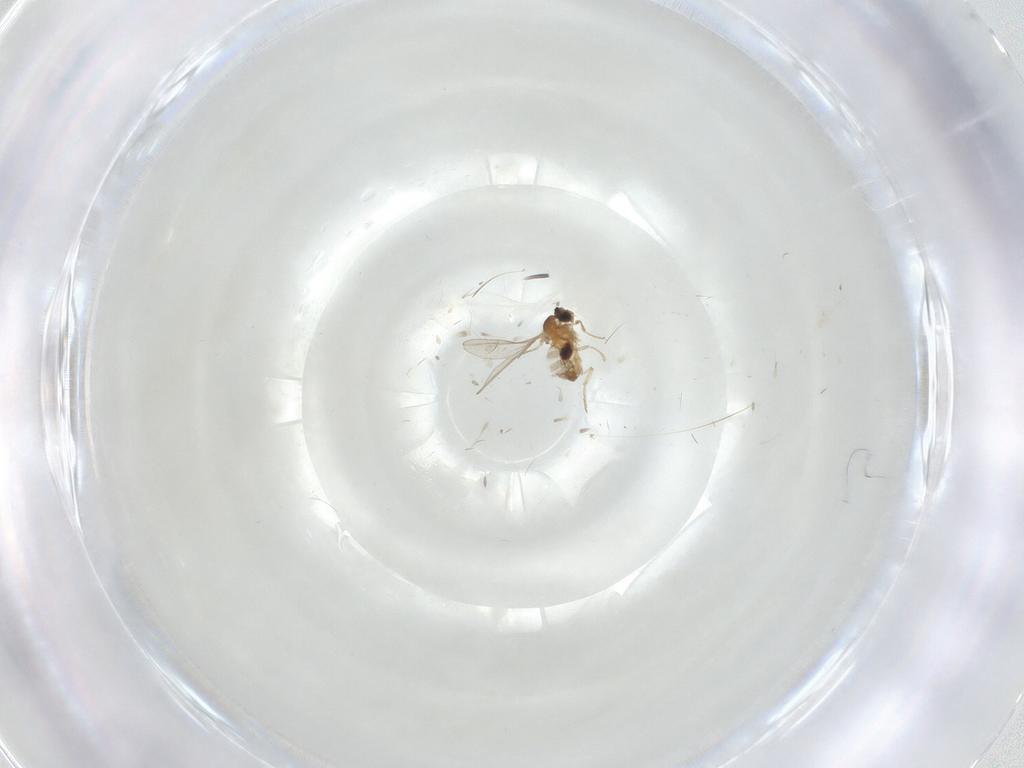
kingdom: Animalia
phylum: Arthropoda
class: Insecta
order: Diptera
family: Cecidomyiidae
